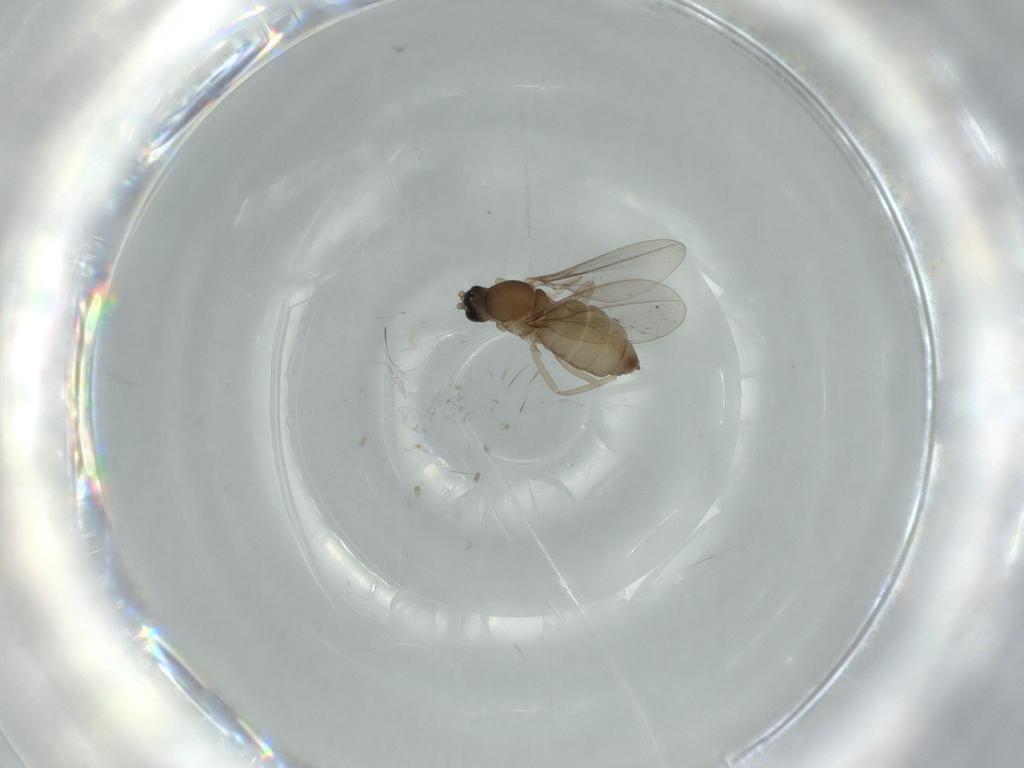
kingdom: Animalia
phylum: Arthropoda
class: Insecta
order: Diptera
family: Cecidomyiidae
